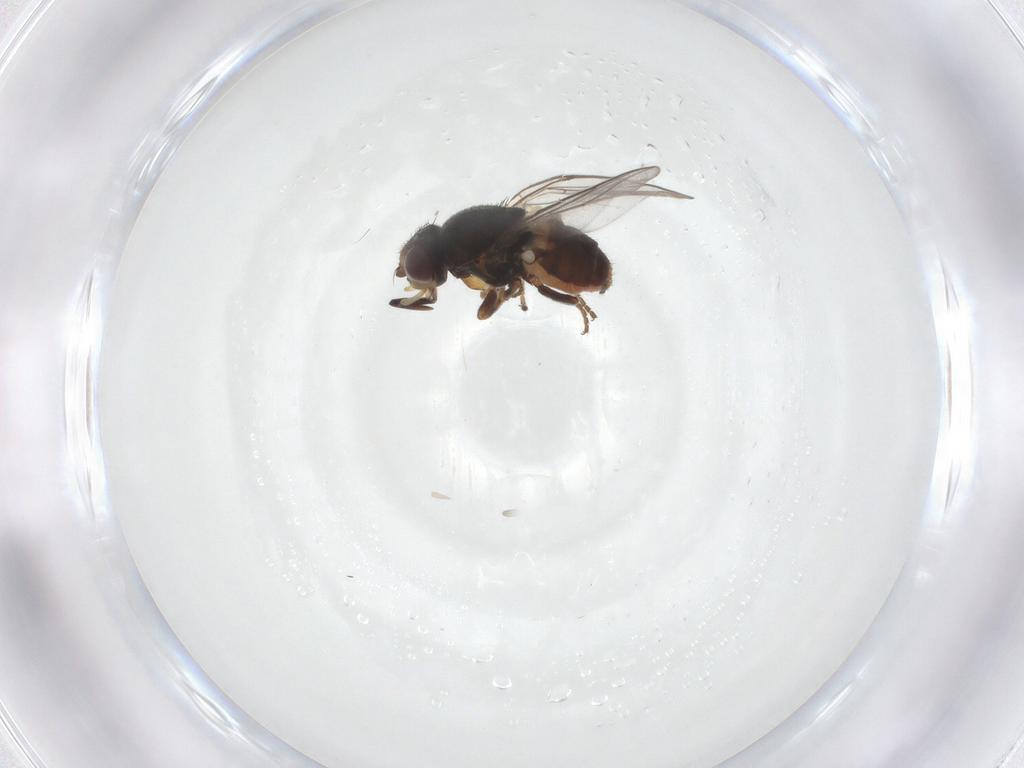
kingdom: Animalia
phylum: Arthropoda
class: Insecta
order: Diptera
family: Chloropidae
